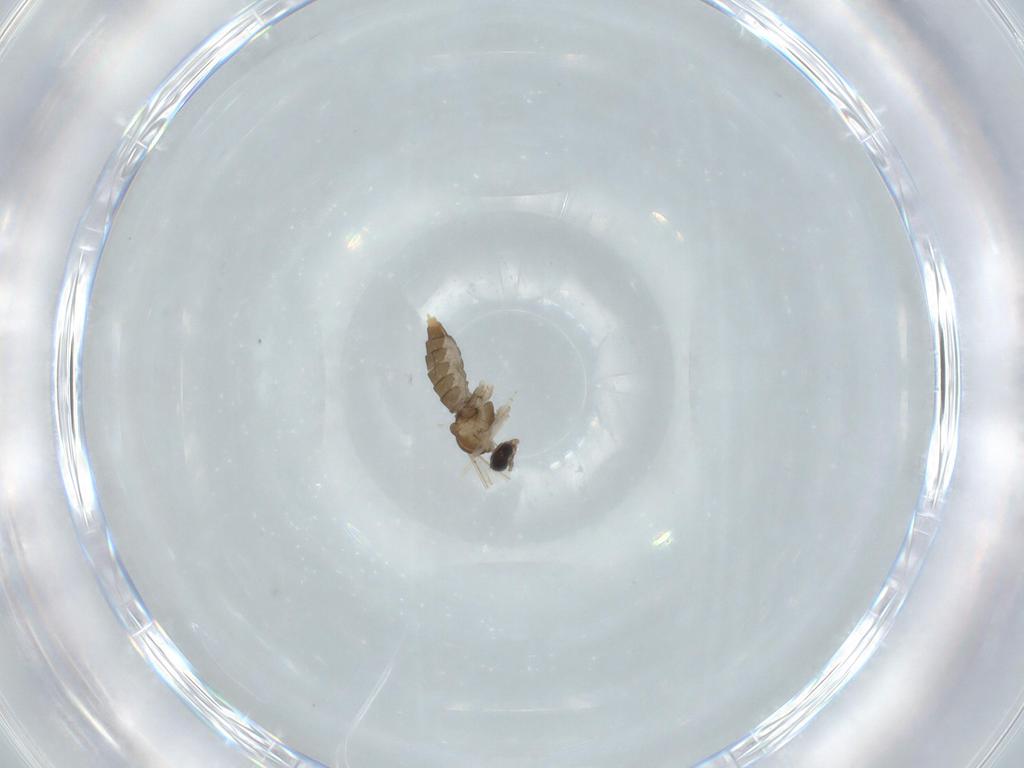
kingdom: Animalia
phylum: Arthropoda
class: Insecta
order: Diptera
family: Cecidomyiidae
